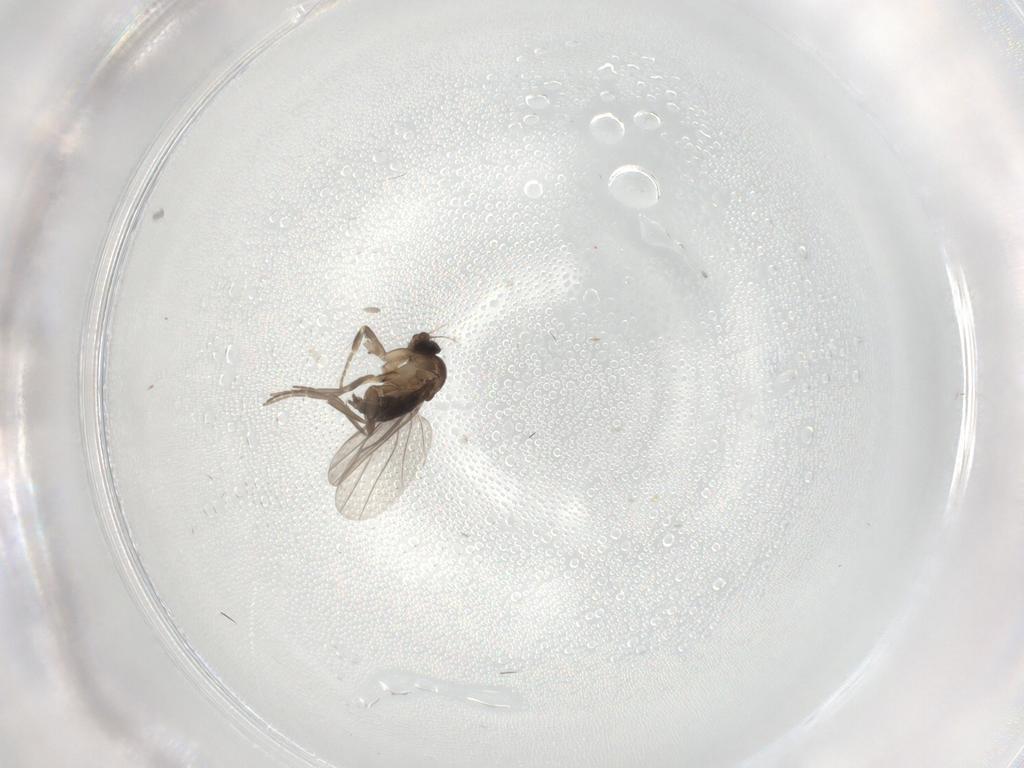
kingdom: Animalia
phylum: Arthropoda
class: Insecta
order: Diptera
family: Phoridae
